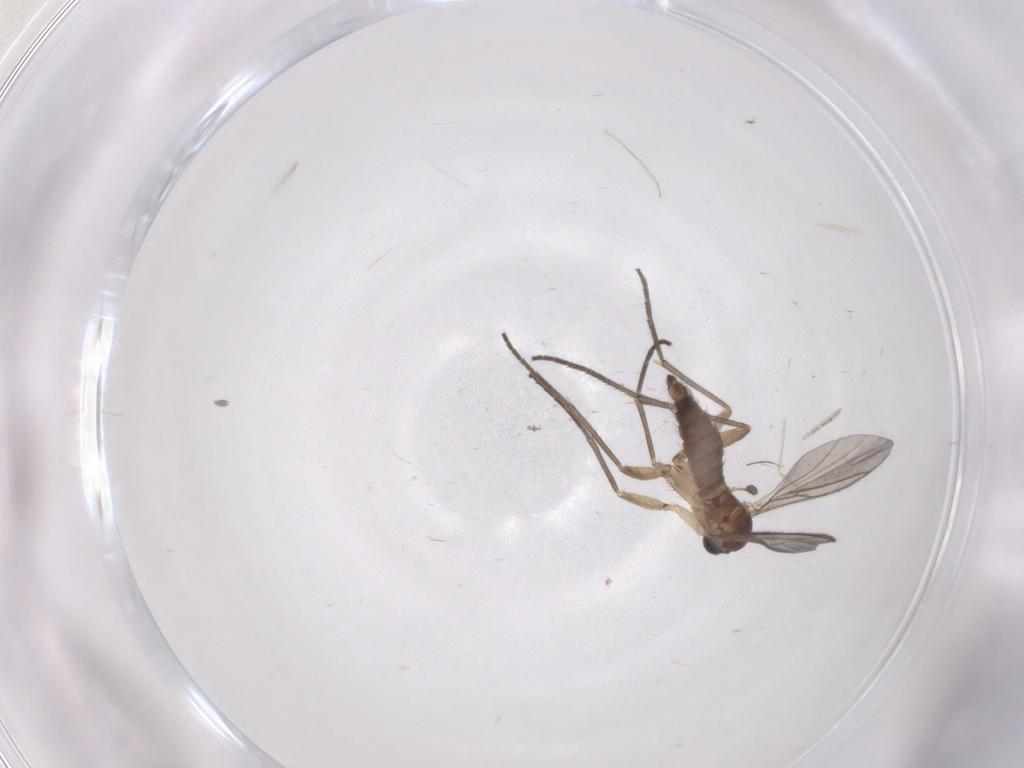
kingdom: Animalia
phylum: Arthropoda
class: Insecta
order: Diptera
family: Sciaridae
